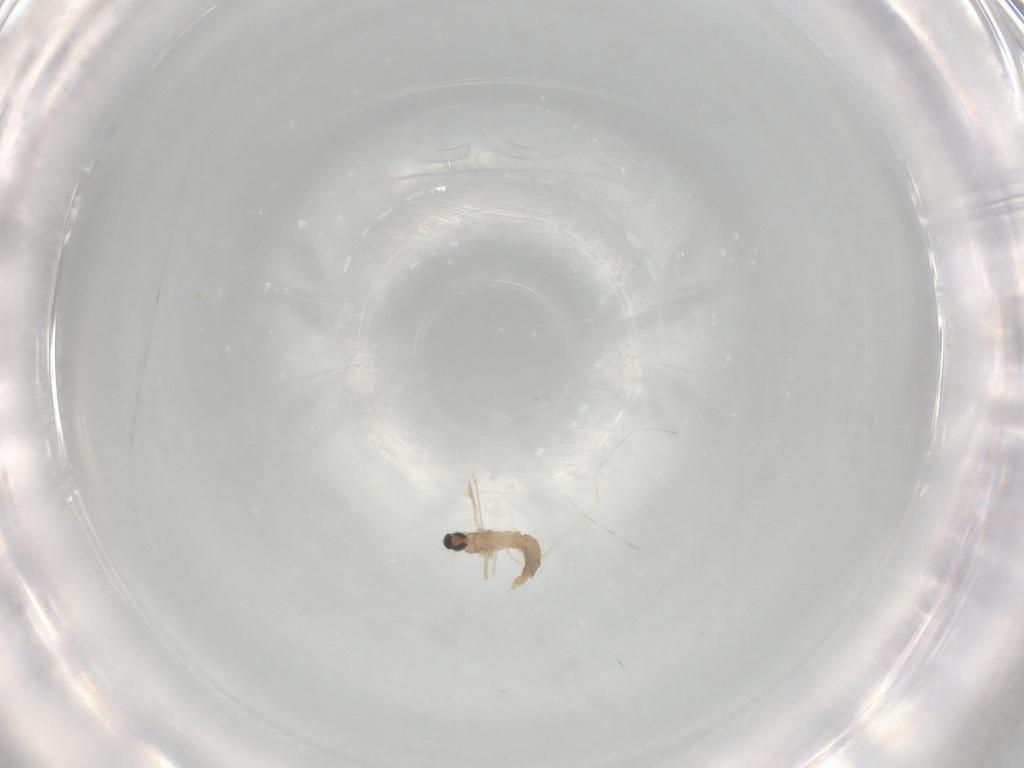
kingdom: Animalia
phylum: Arthropoda
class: Insecta
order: Diptera
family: Cecidomyiidae
